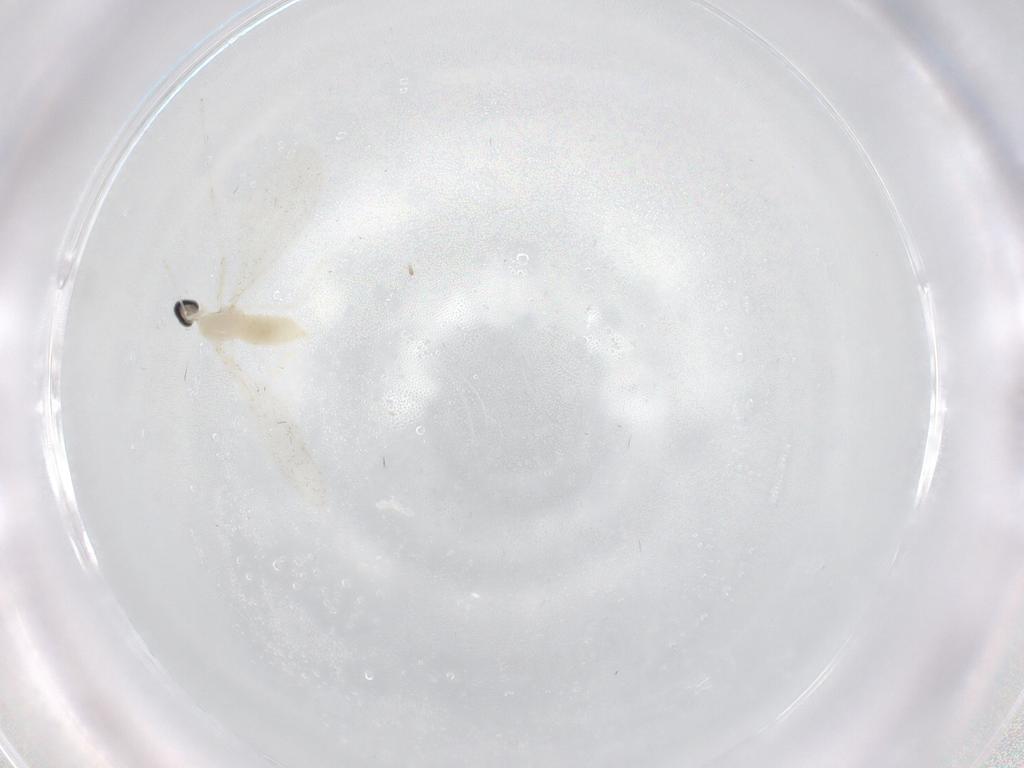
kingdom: Animalia
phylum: Arthropoda
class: Insecta
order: Diptera
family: Cecidomyiidae
